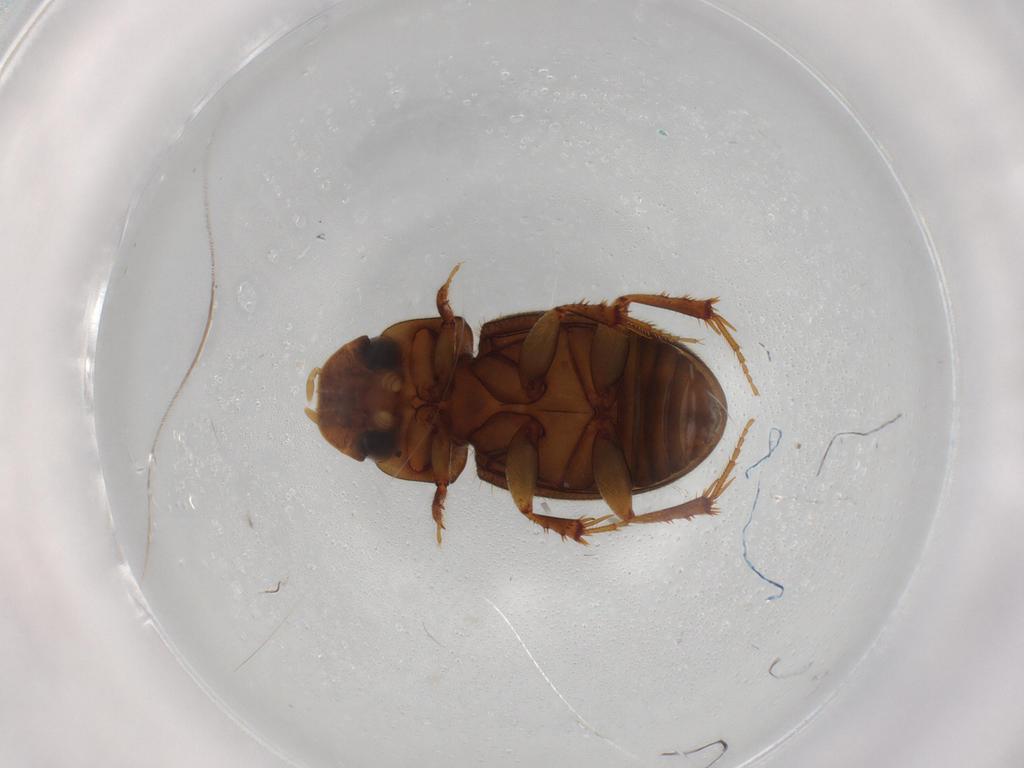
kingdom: Animalia
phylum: Arthropoda
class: Insecta
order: Coleoptera
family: Scarabaeidae
